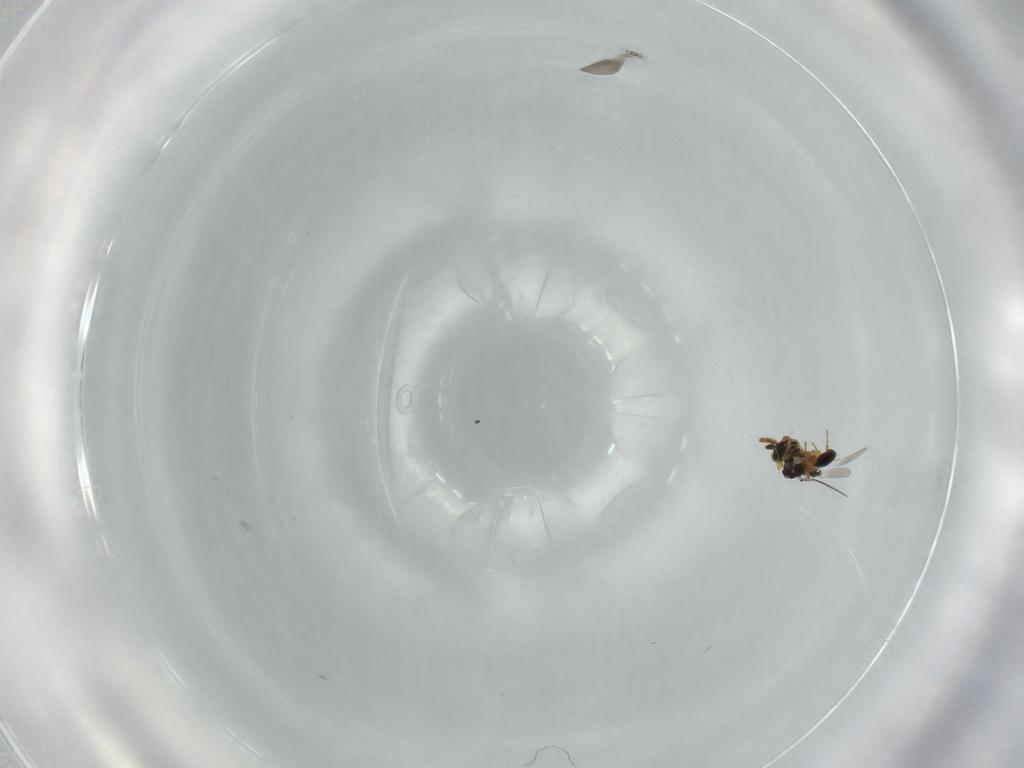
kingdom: Animalia
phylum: Arthropoda
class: Insecta
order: Hymenoptera
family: Platygastridae
